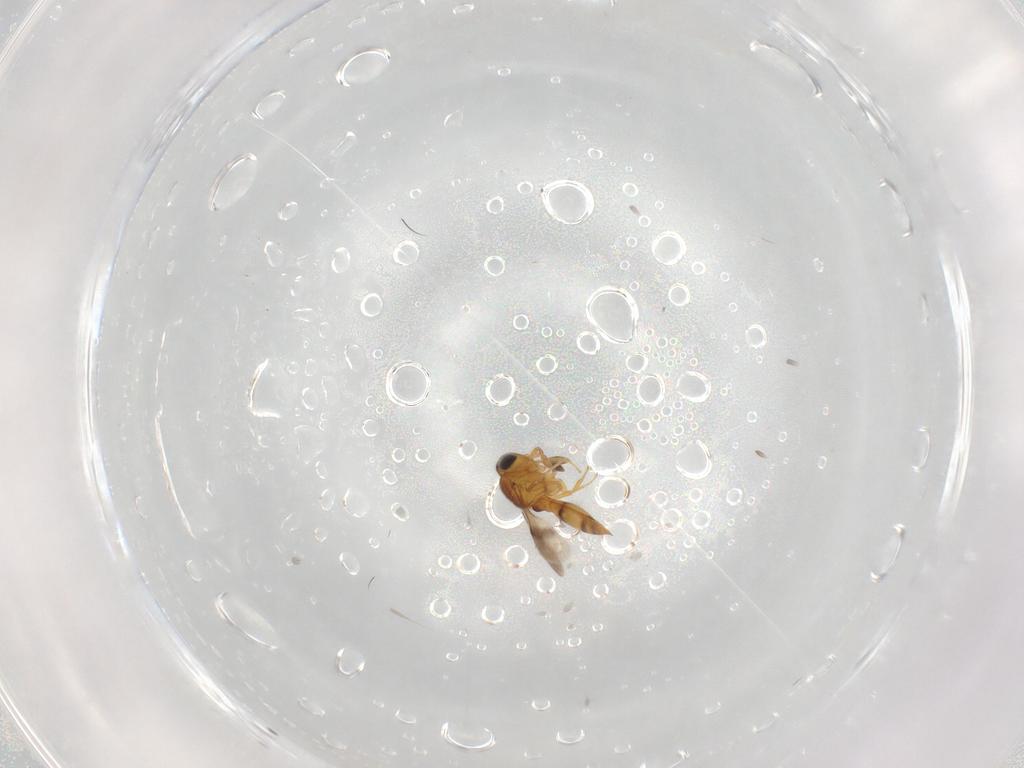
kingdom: Animalia
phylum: Arthropoda
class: Insecta
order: Hymenoptera
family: Scelionidae
